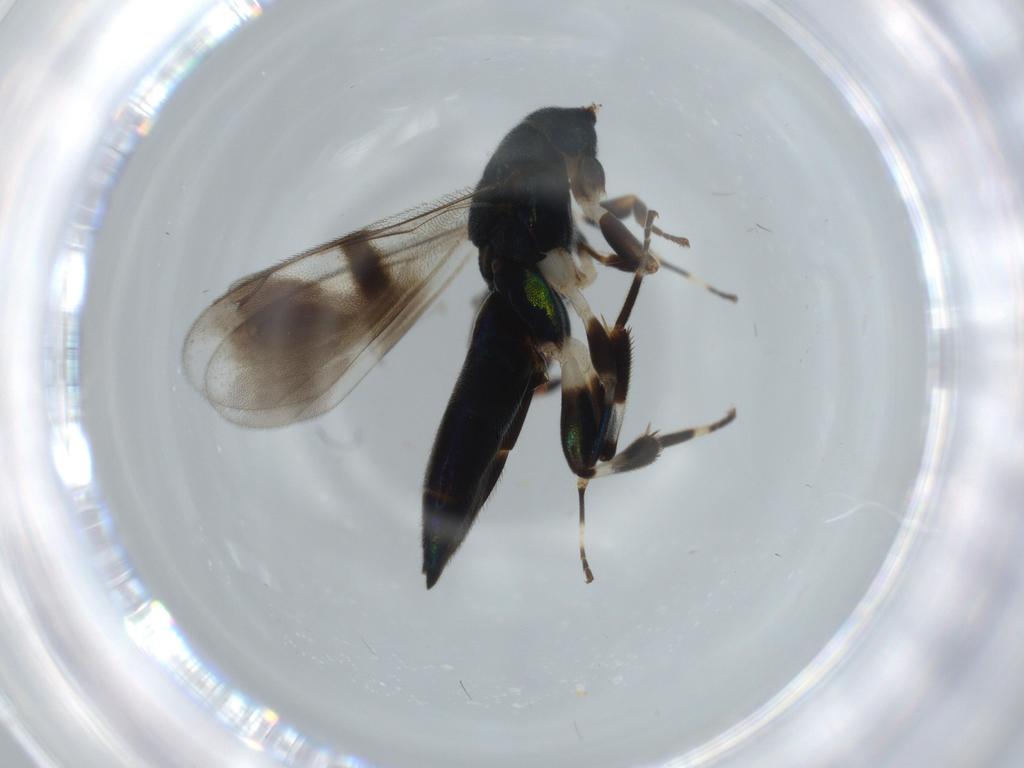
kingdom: Animalia
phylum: Arthropoda
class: Insecta
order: Hymenoptera
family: Cleonyminae
